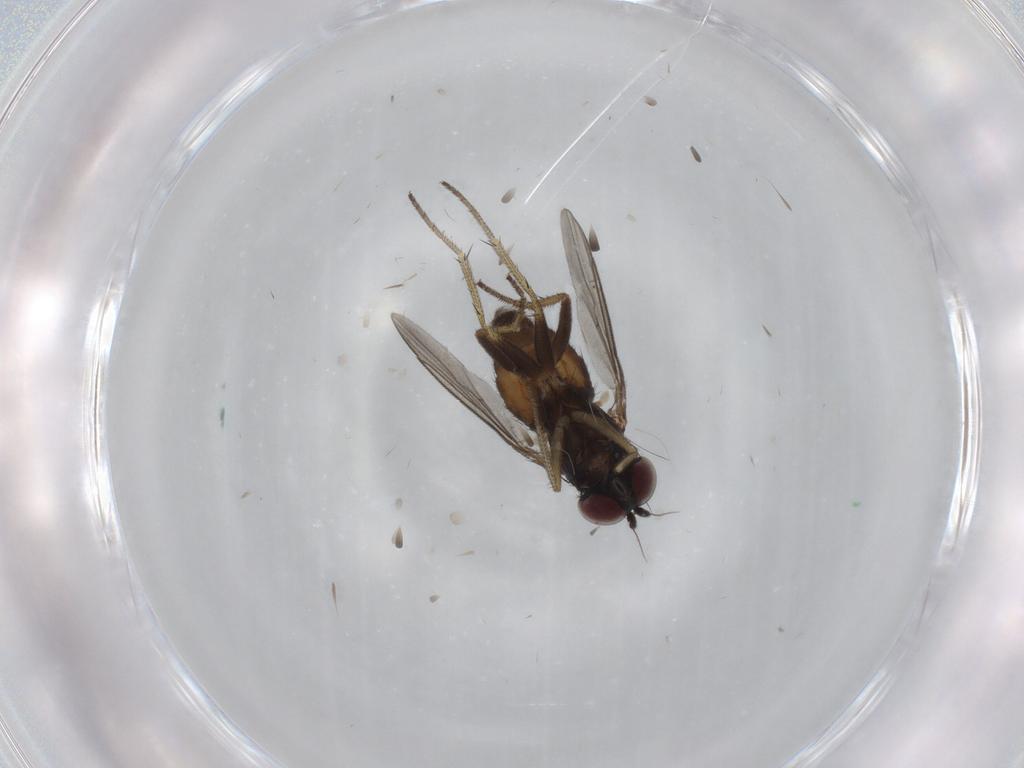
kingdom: Animalia
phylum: Arthropoda
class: Insecta
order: Diptera
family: Dolichopodidae
